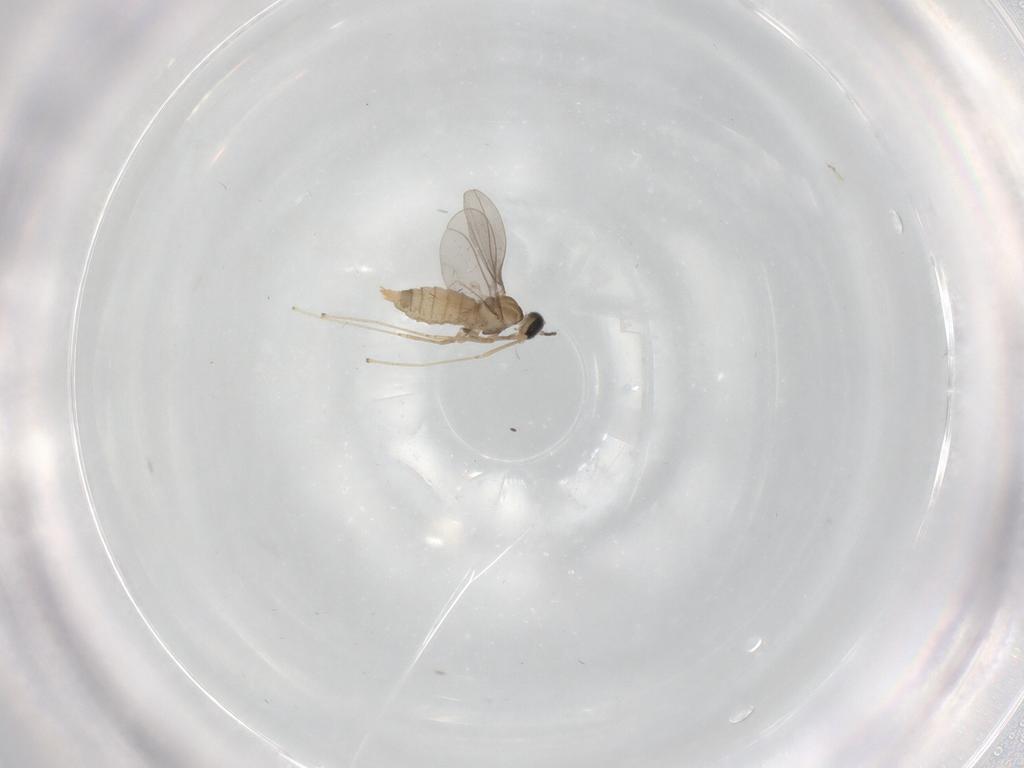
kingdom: Animalia
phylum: Arthropoda
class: Insecta
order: Diptera
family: Cecidomyiidae
